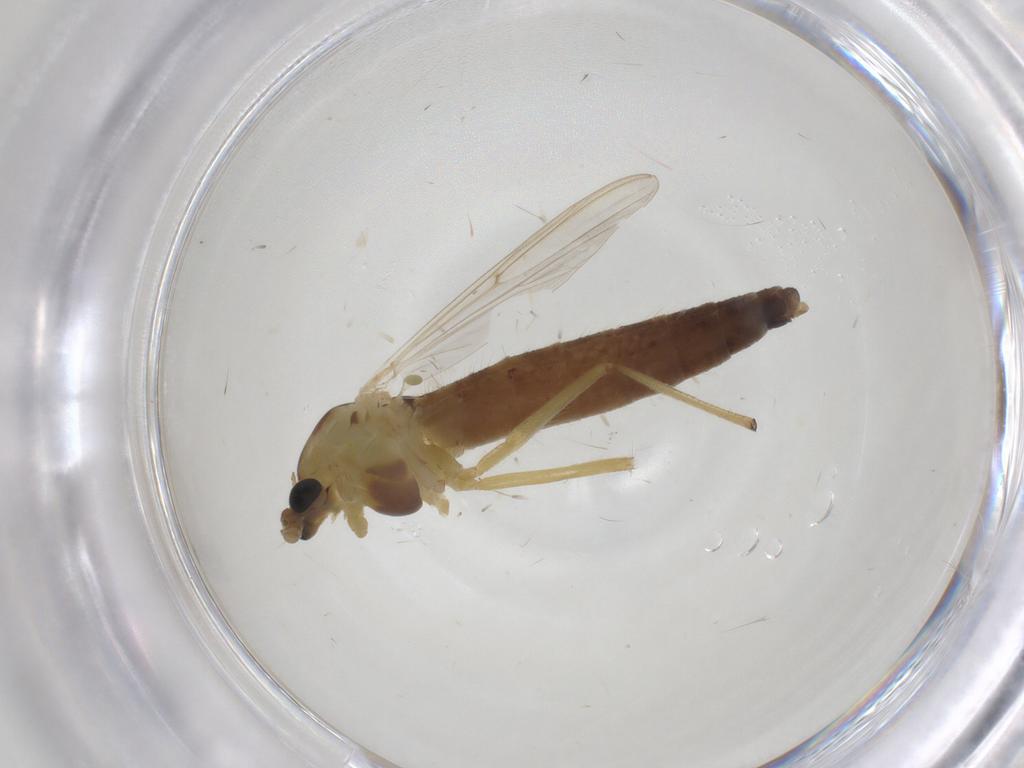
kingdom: Animalia
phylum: Arthropoda
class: Insecta
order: Diptera
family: Chironomidae
